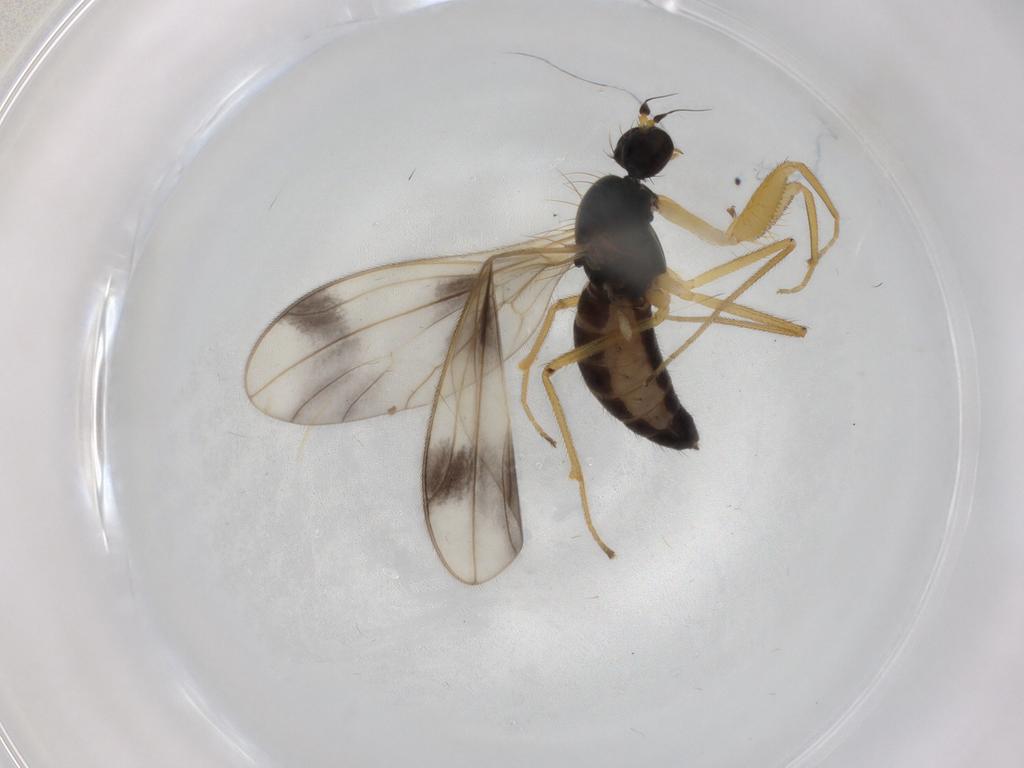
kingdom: Animalia
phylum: Arthropoda
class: Insecta
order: Diptera
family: Empididae
